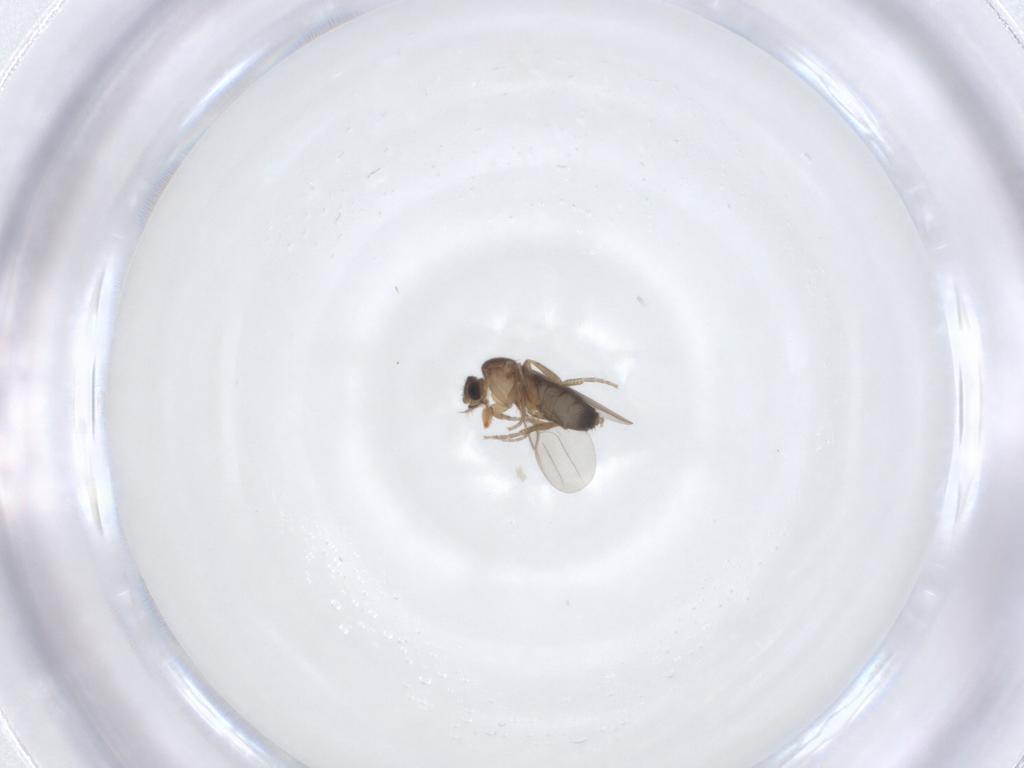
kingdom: Animalia
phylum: Arthropoda
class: Insecta
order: Diptera
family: Phoridae
